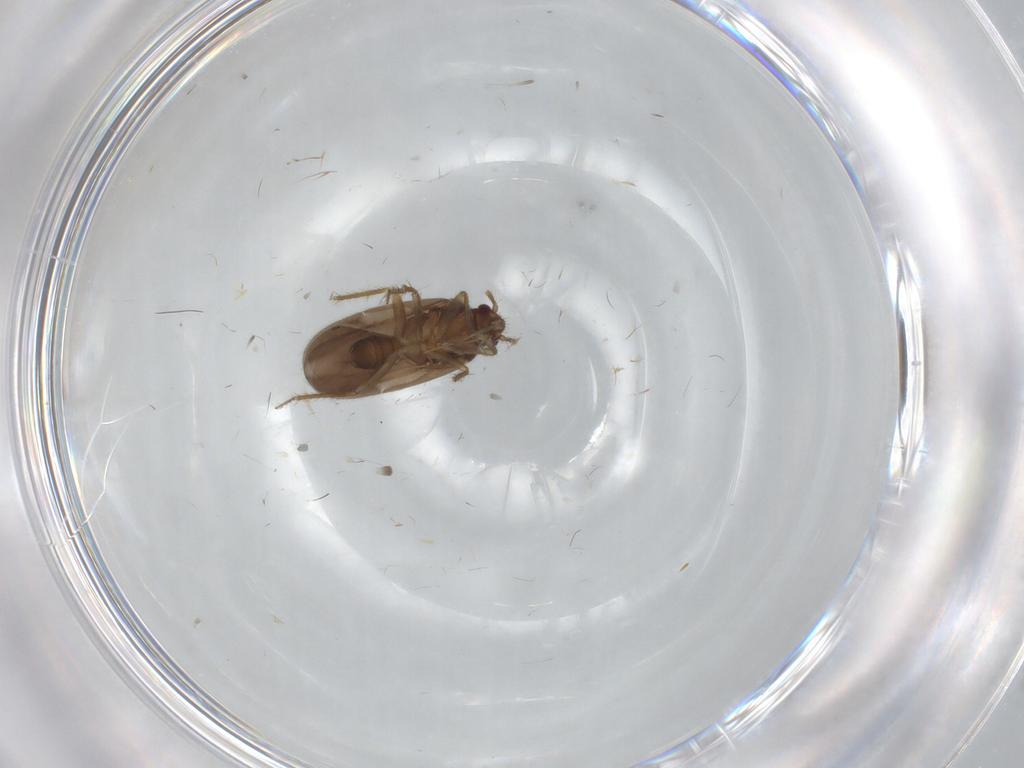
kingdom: Animalia
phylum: Arthropoda
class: Insecta
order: Hemiptera
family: Ceratocombidae
